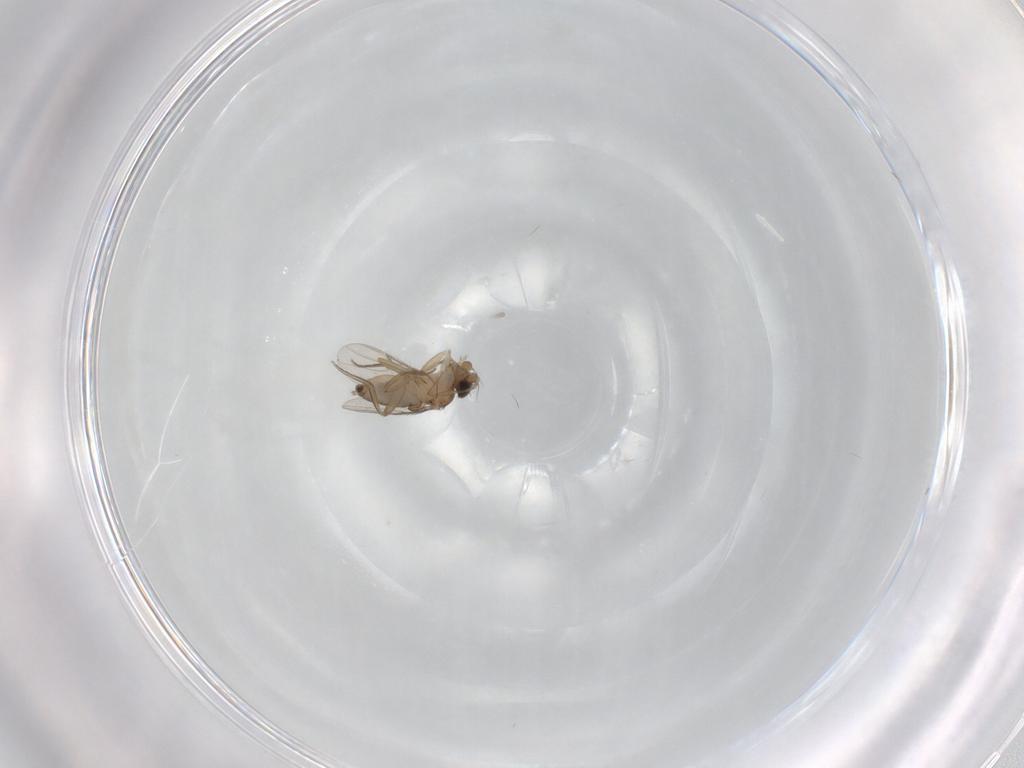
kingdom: Animalia
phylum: Arthropoda
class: Insecta
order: Diptera
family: Phoridae
